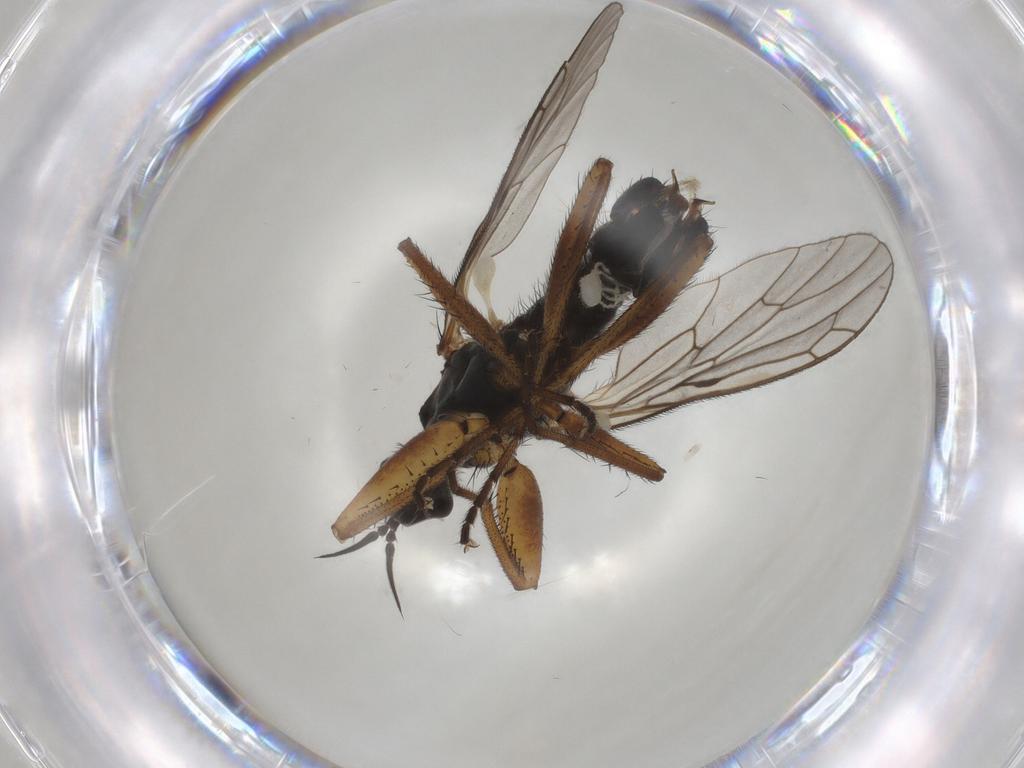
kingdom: Animalia
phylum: Arthropoda
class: Insecta
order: Diptera
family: Empididae
